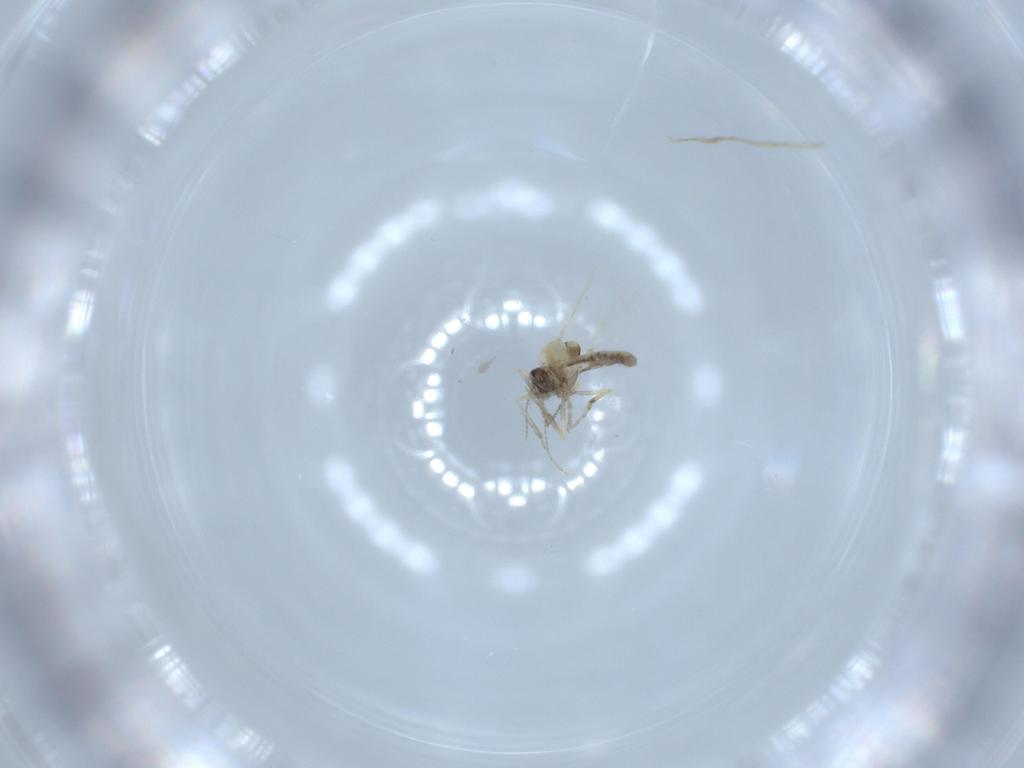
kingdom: Animalia
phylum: Arthropoda
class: Insecta
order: Diptera
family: Ceratopogonidae
